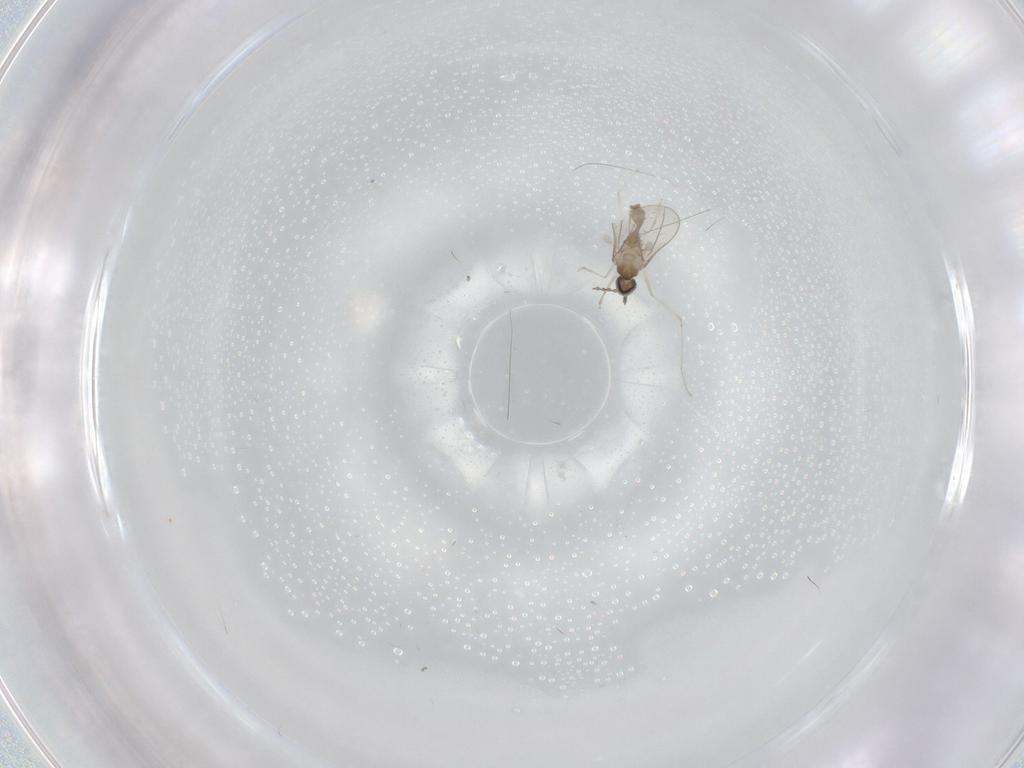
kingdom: Animalia
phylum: Arthropoda
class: Insecta
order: Diptera
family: Cecidomyiidae
